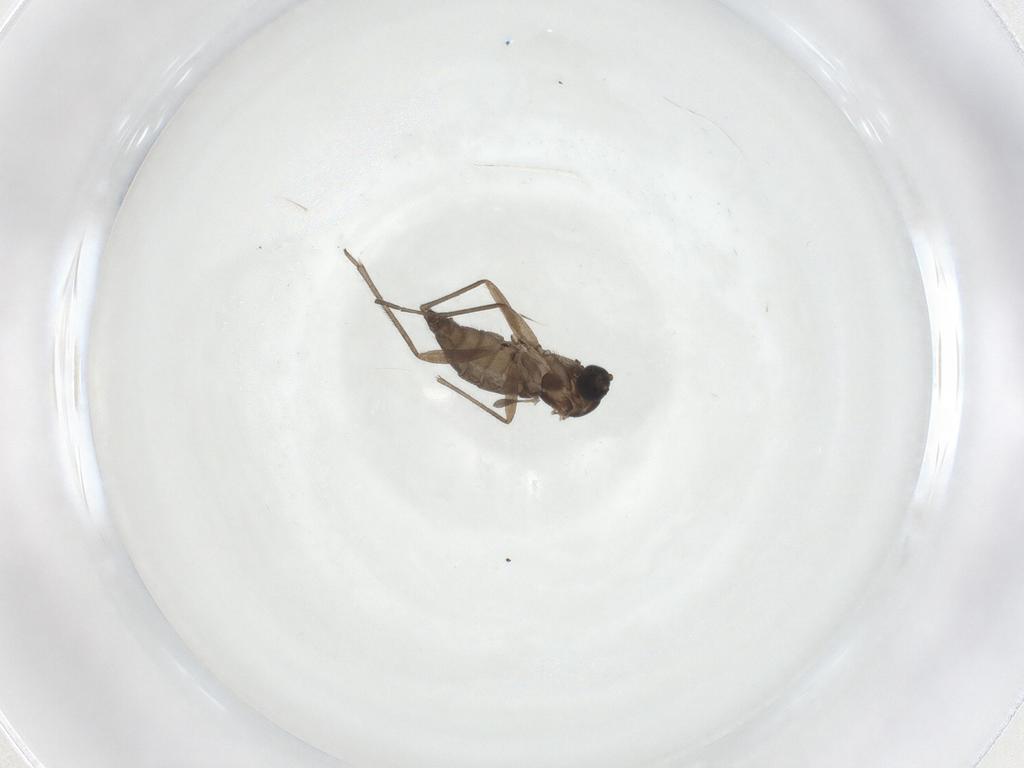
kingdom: Animalia
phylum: Arthropoda
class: Insecta
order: Diptera
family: Sciaridae
